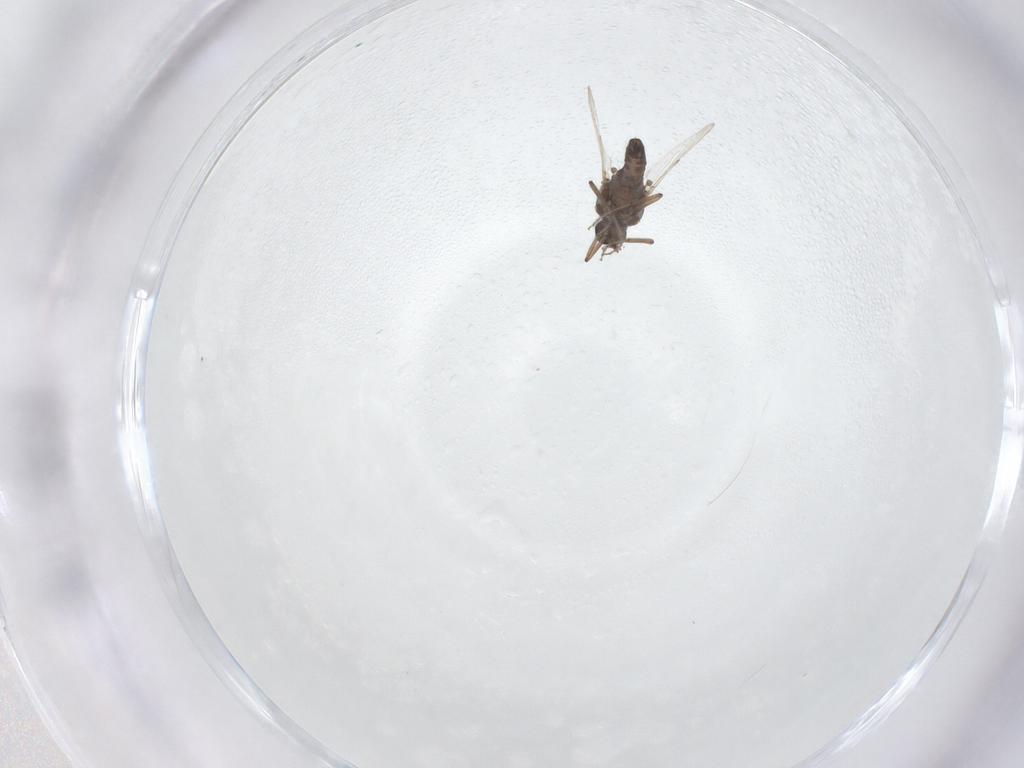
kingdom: Animalia
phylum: Arthropoda
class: Insecta
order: Diptera
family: Ceratopogonidae
